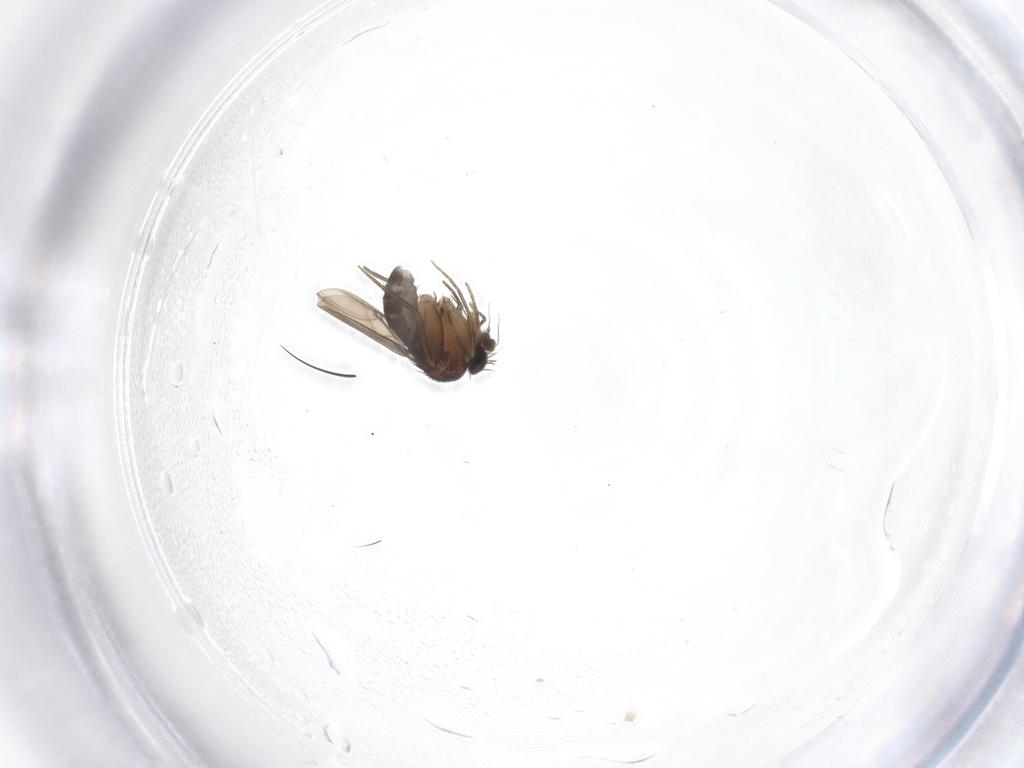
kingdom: Animalia
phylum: Arthropoda
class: Insecta
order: Diptera
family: Phoridae
